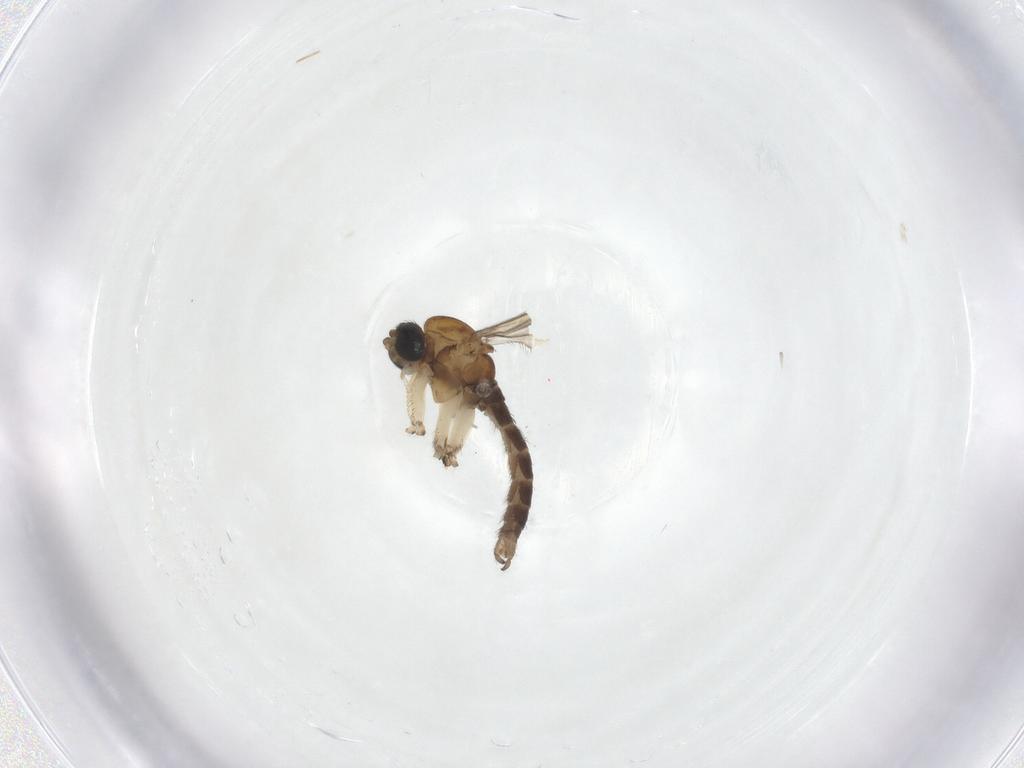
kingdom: Animalia
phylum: Arthropoda
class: Insecta
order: Diptera
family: Sciaridae
